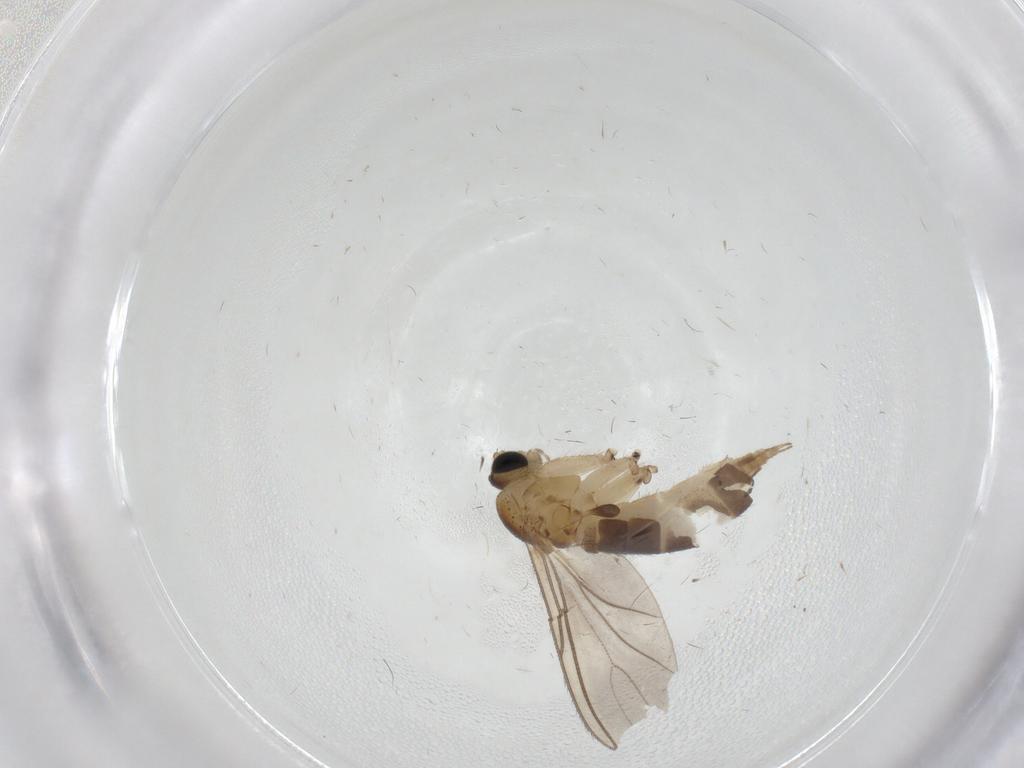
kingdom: Animalia
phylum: Arthropoda
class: Insecta
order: Diptera
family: Sciaridae
